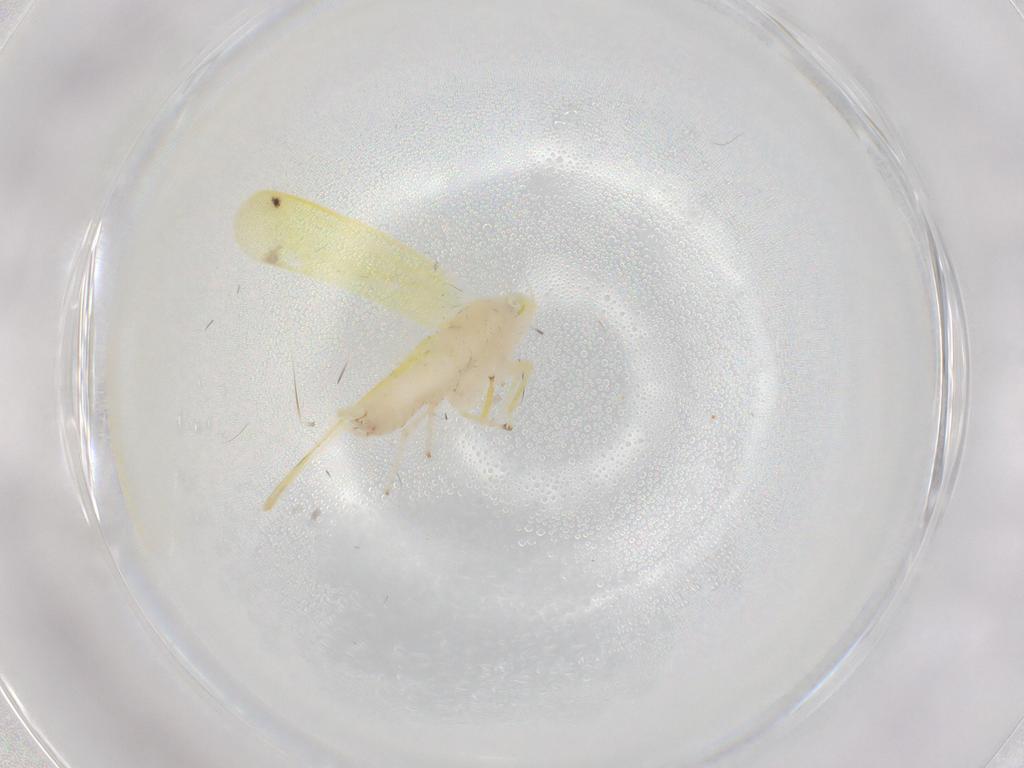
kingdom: Animalia
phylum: Arthropoda
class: Insecta
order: Hemiptera
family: Cicadellidae
